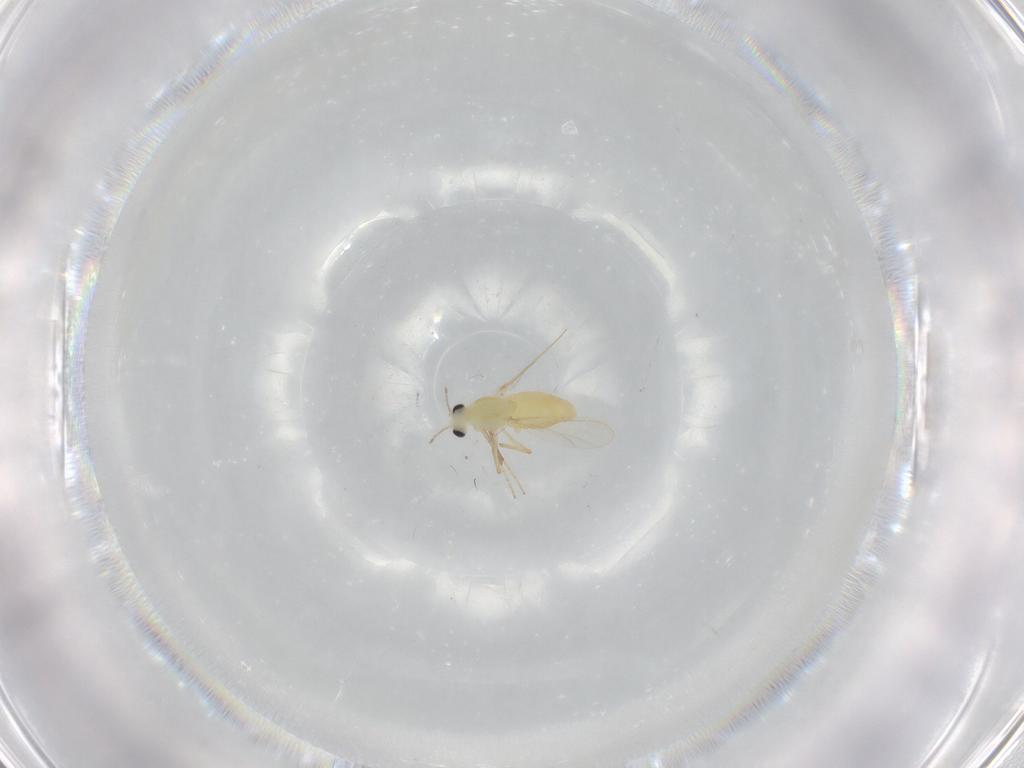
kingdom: Animalia
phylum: Arthropoda
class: Insecta
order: Diptera
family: Chironomidae
